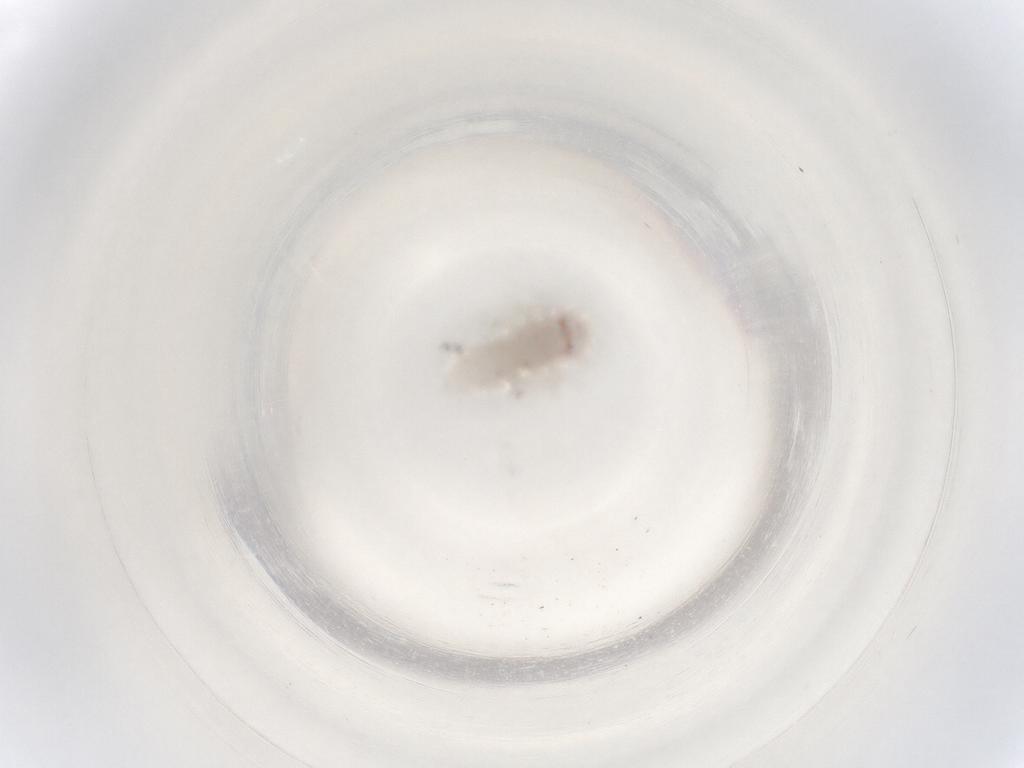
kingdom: Animalia
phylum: Arthropoda
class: Insecta
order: Hemiptera
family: Cicadellidae
